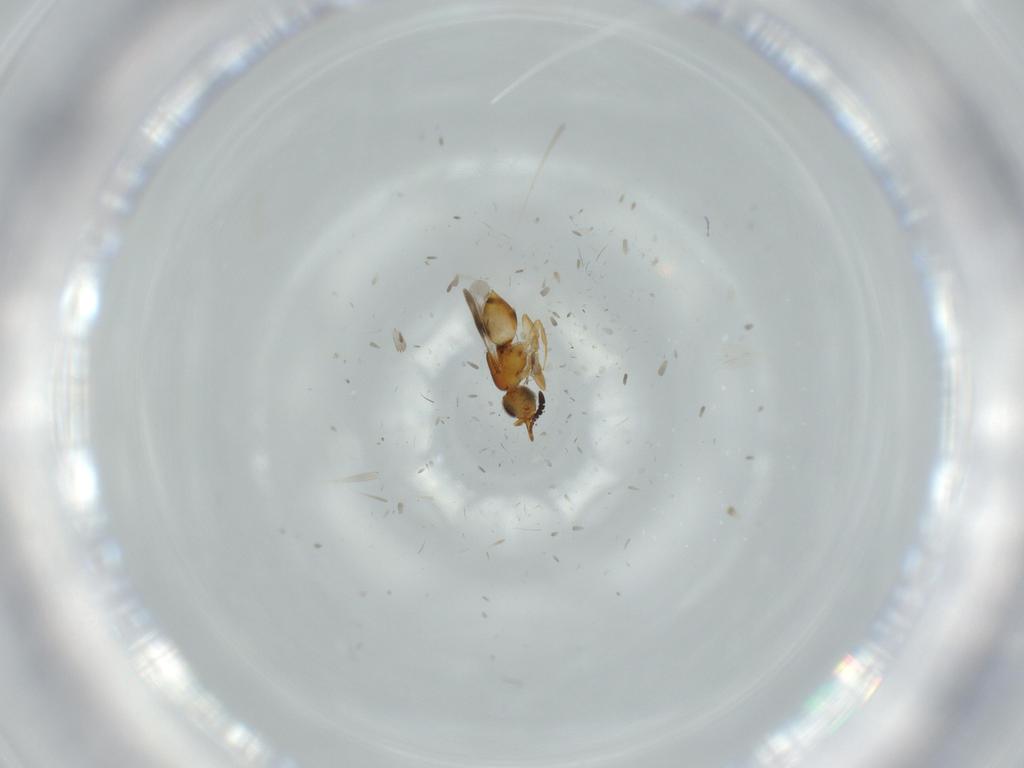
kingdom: Animalia
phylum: Arthropoda
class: Insecta
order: Hymenoptera
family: Ceraphronidae
